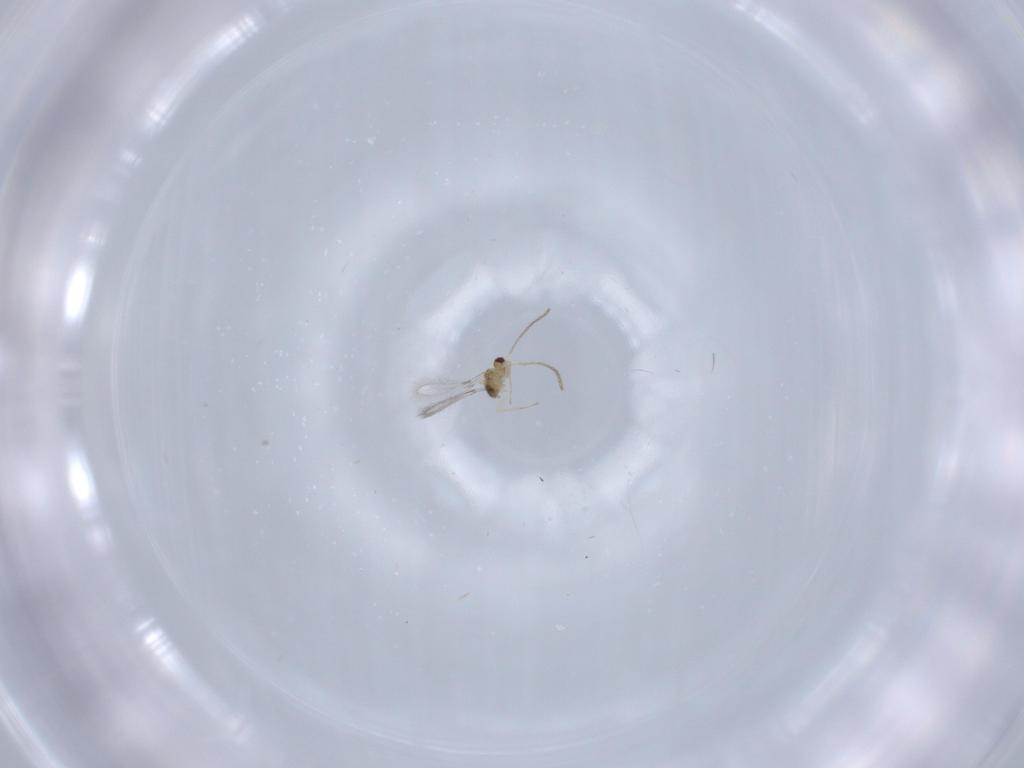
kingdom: Animalia
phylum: Arthropoda
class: Insecta
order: Hymenoptera
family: Mymaridae
